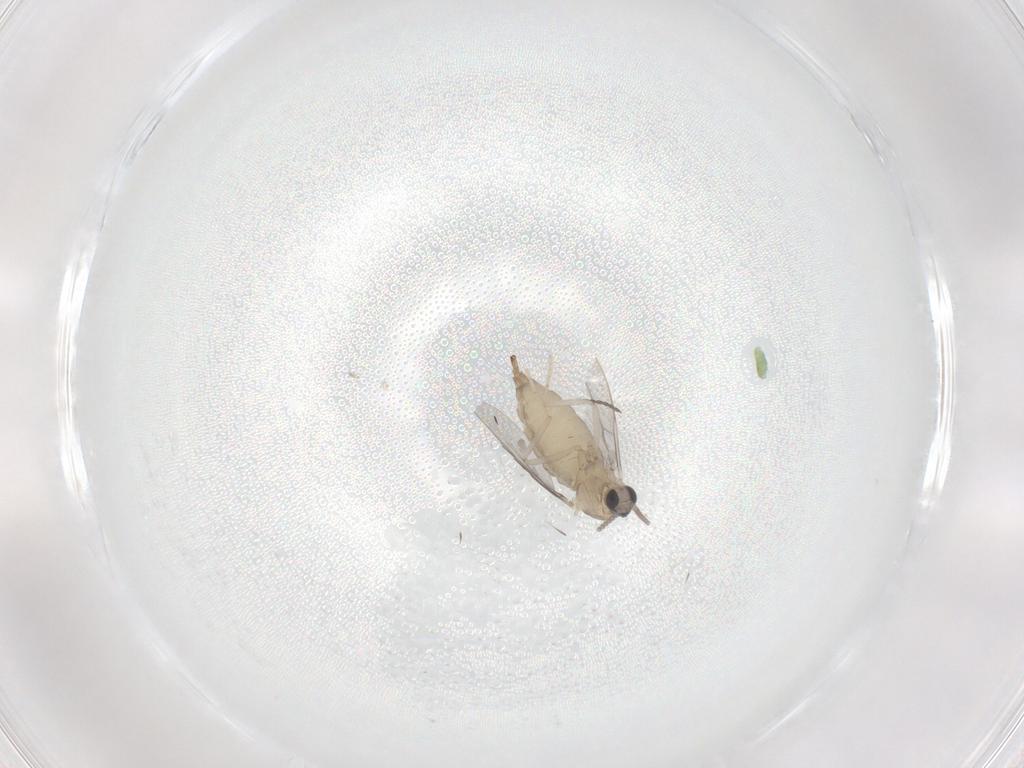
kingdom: Animalia
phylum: Arthropoda
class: Insecta
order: Diptera
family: Cecidomyiidae
